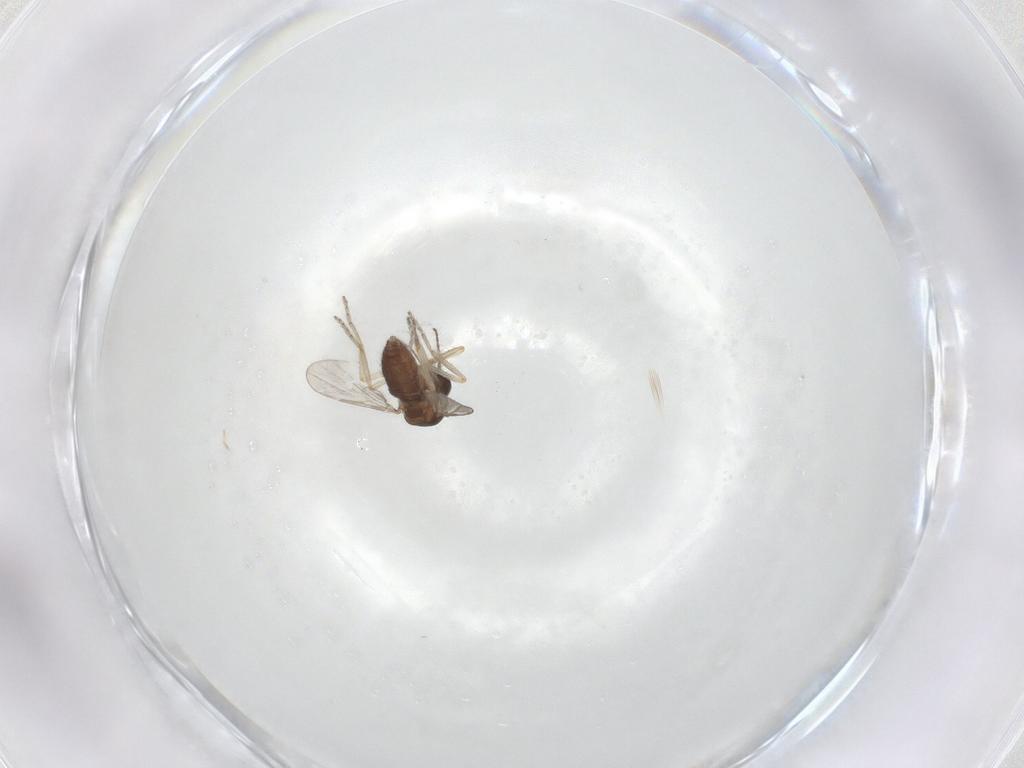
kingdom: Animalia
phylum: Arthropoda
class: Insecta
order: Diptera
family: Ceratopogonidae
